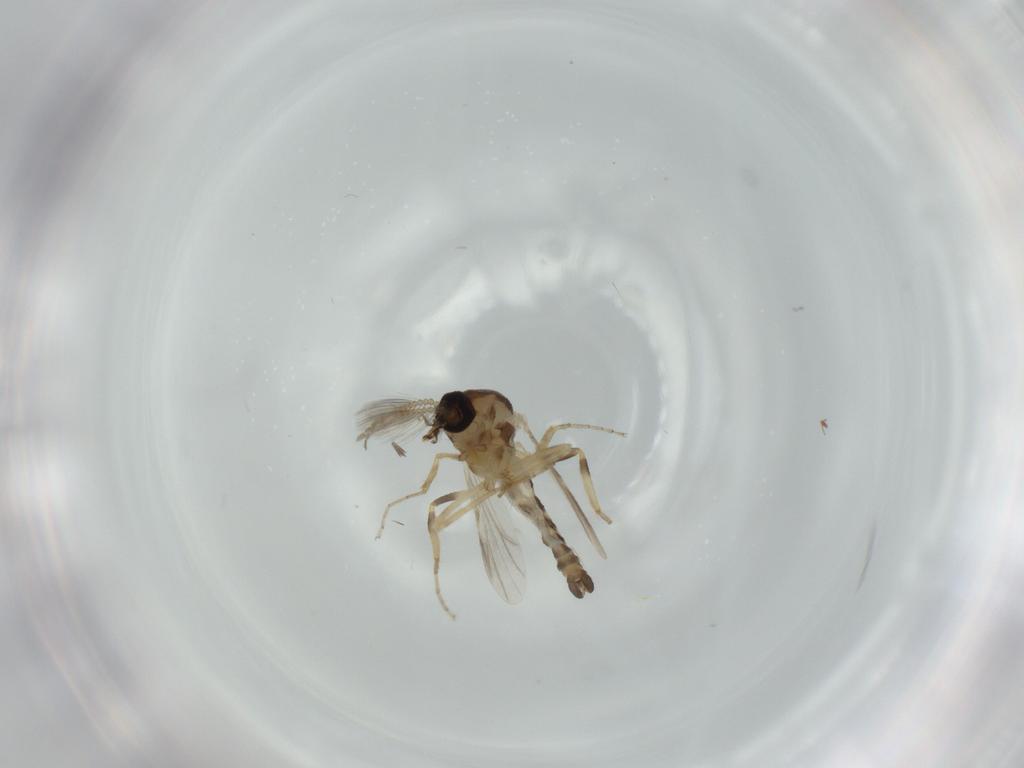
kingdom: Animalia
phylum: Arthropoda
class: Insecta
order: Diptera
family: Ceratopogonidae
